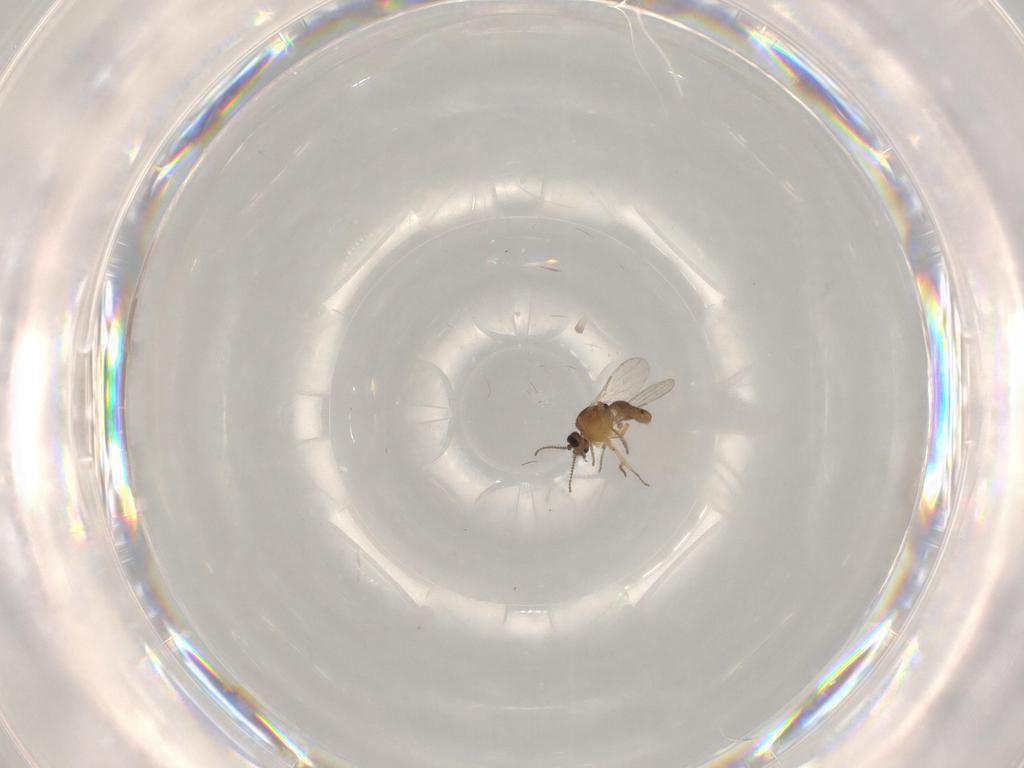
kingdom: Animalia
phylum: Arthropoda
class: Insecta
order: Diptera
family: Ceratopogonidae
